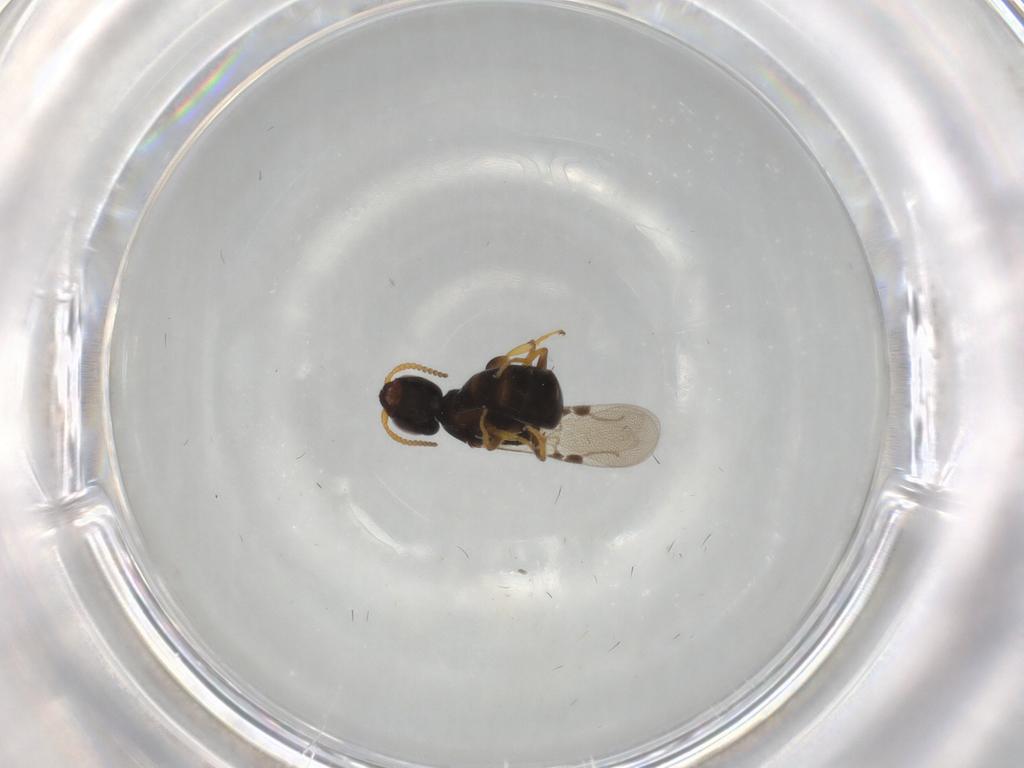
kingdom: Animalia
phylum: Arthropoda
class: Insecta
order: Hymenoptera
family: Bethylidae
